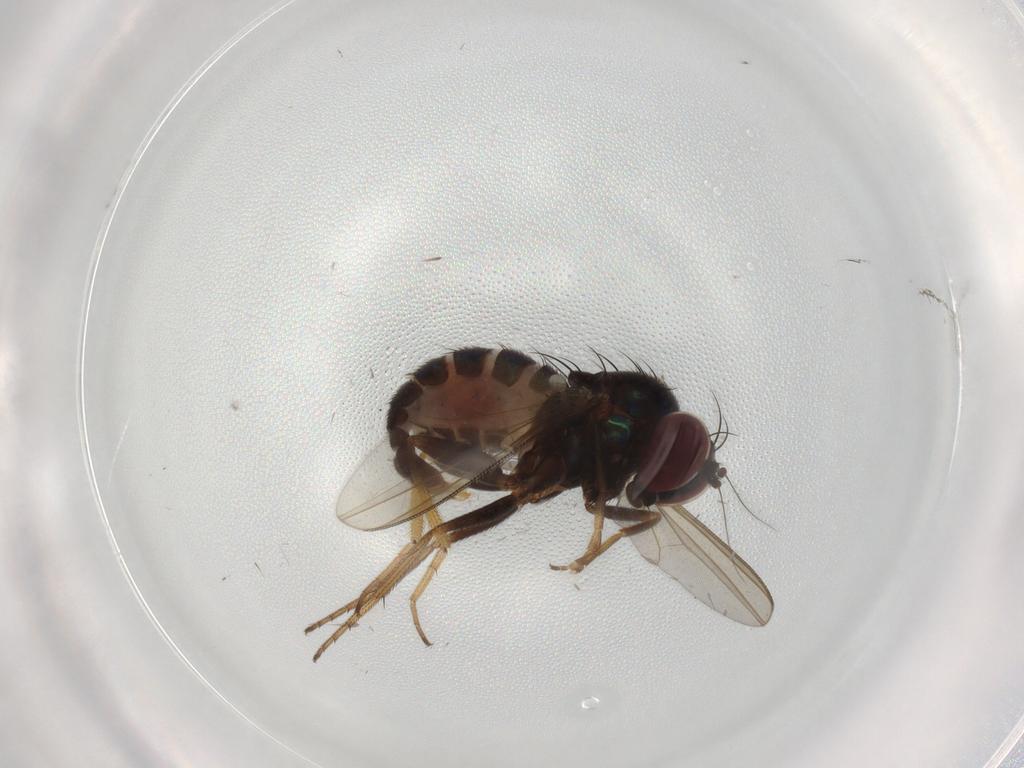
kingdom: Animalia
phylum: Arthropoda
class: Insecta
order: Diptera
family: Dolichopodidae
